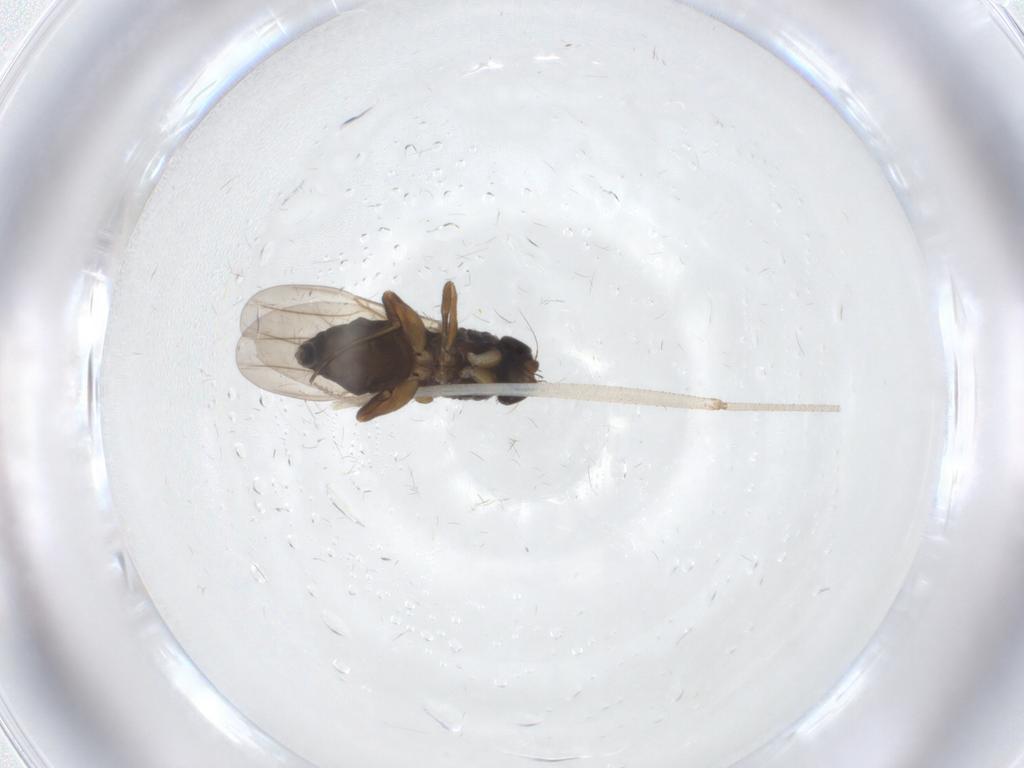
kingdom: Animalia
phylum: Arthropoda
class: Insecta
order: Diptera
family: Phoridae
